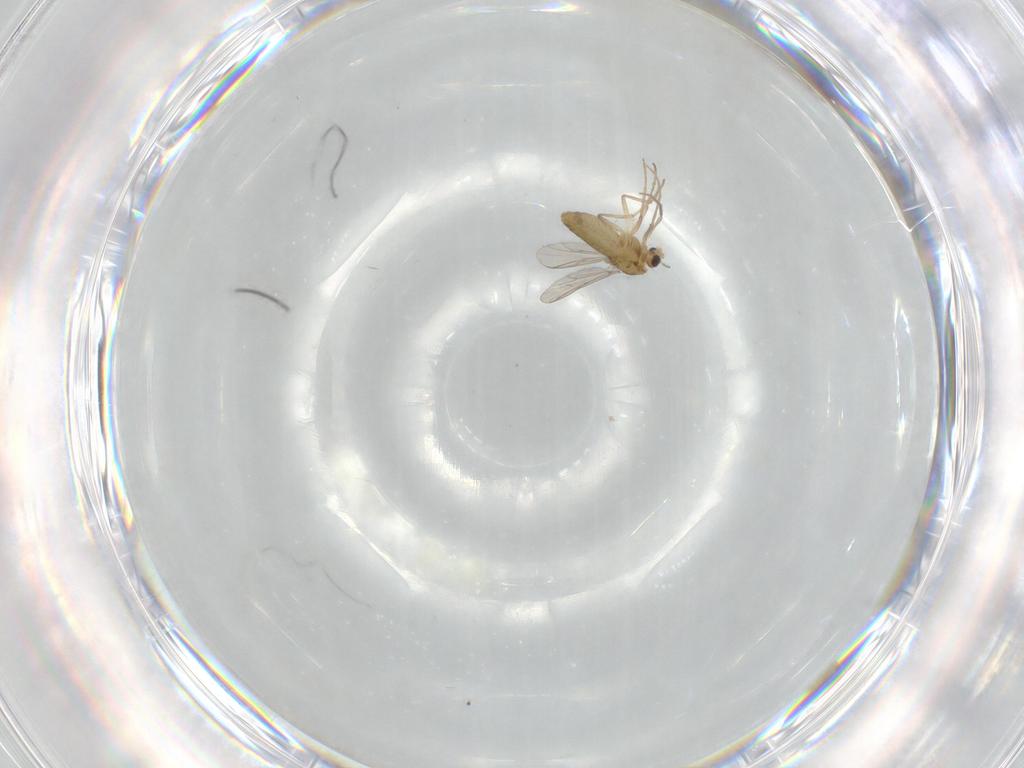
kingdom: Animalia
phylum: Arthropoda
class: Insecta
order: Diptera
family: Chironomidae
